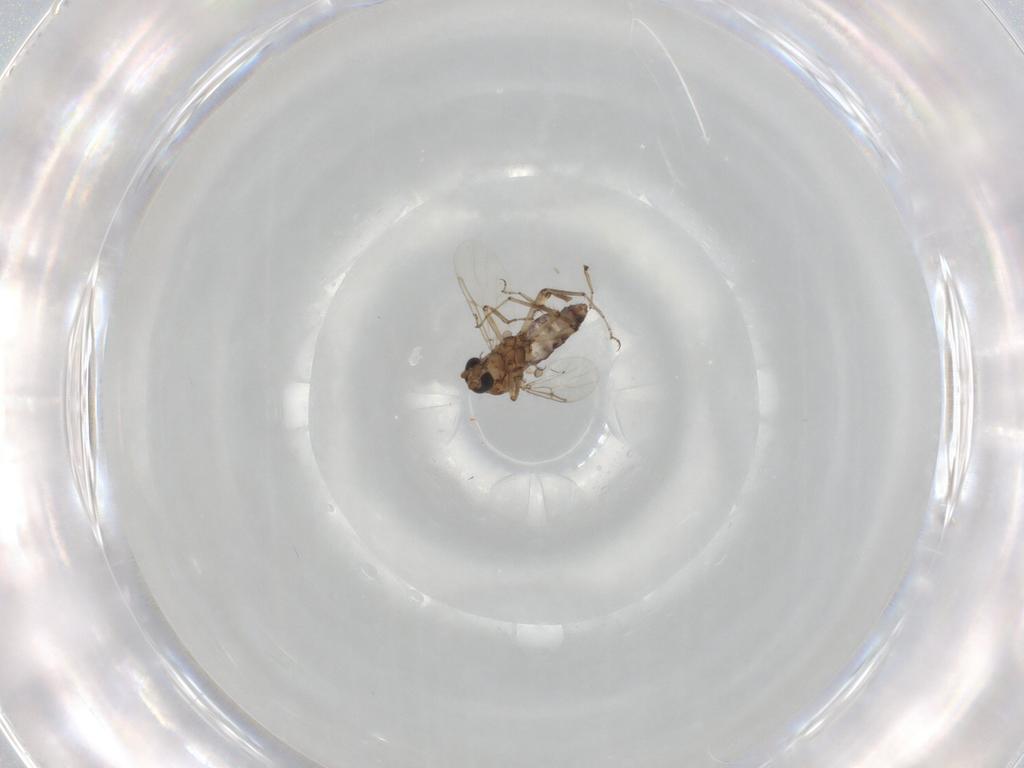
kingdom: Animalia
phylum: Arthropoda
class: Insecta
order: Diptera
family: Ceratopogonidae
